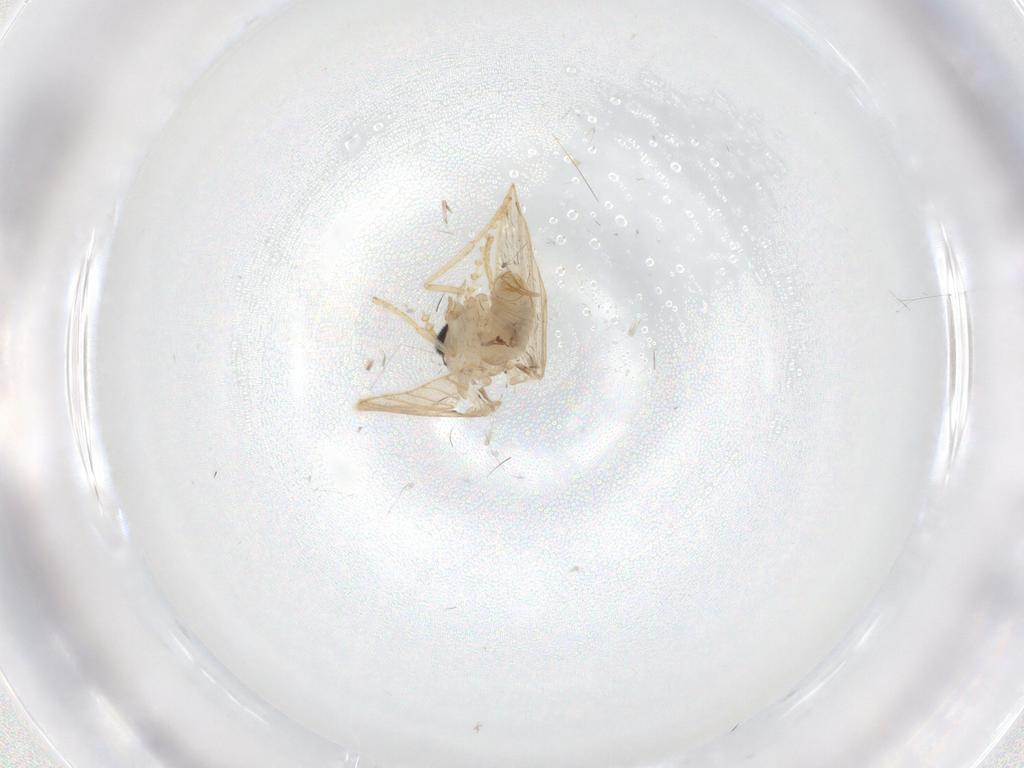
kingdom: Animalia
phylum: Arthropoda
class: Insecta
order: Diptera
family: Psychodidae
